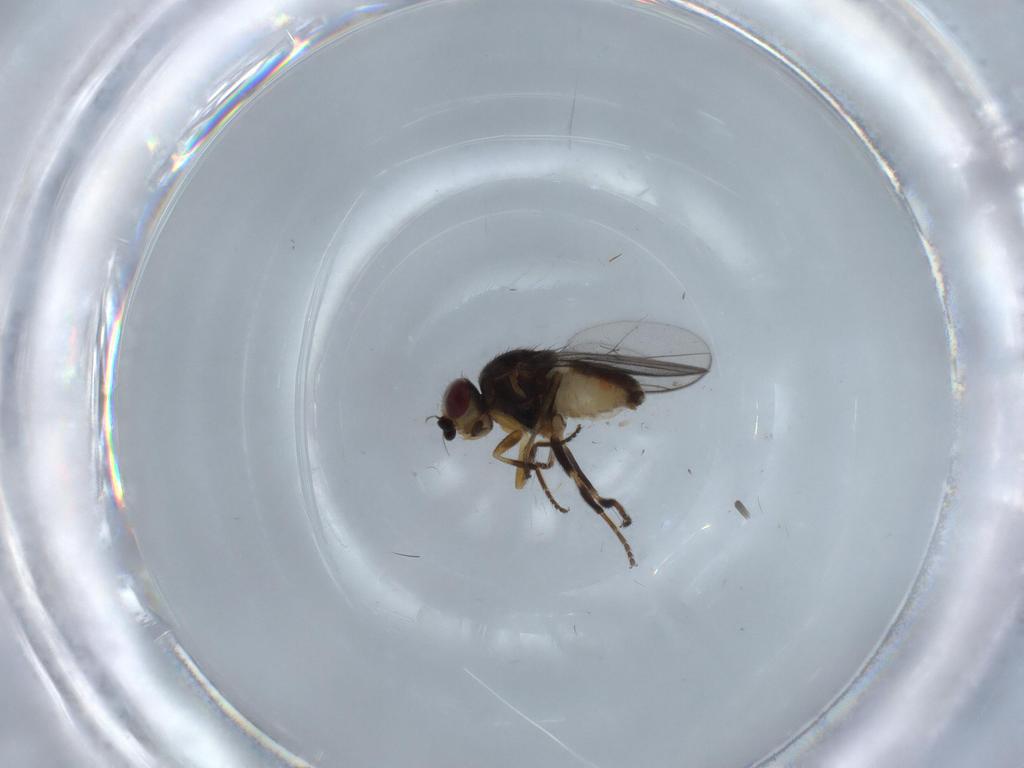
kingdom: Animalia
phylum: Arthropoda
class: Insecta
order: Diptera
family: Chloropidae
